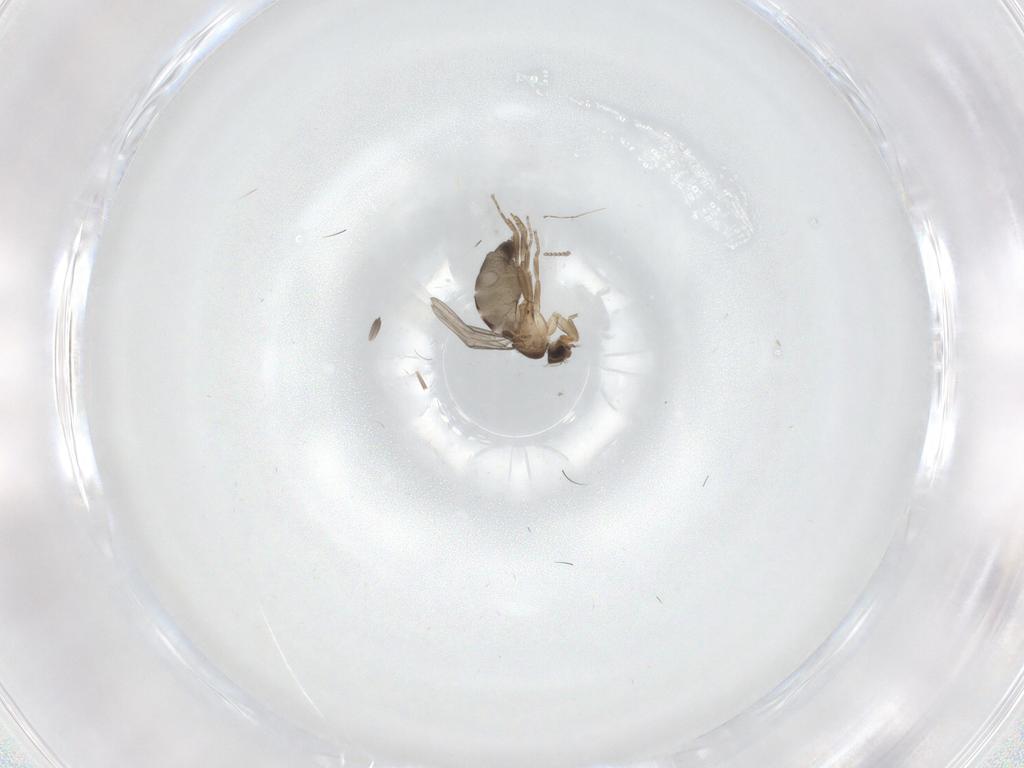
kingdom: Animalia
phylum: Arthropoda
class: Insecta
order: Diptera
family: Phoridae
